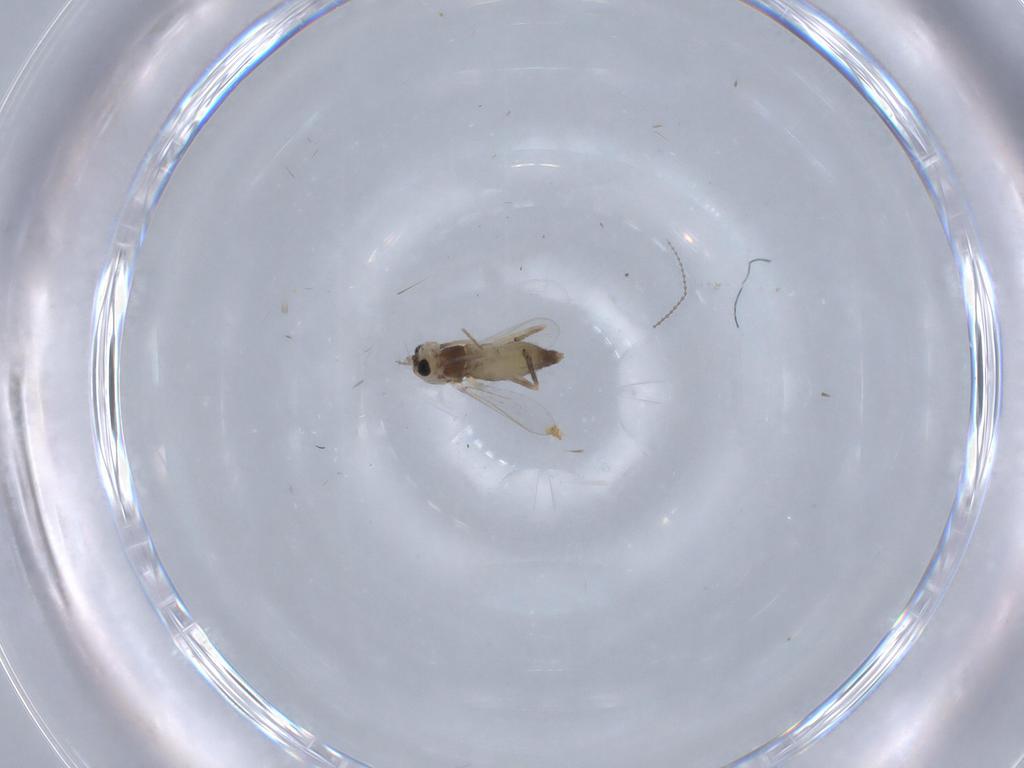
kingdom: Animalia
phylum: Arthropoda
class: Insecta
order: Diptera
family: Chironomidae
